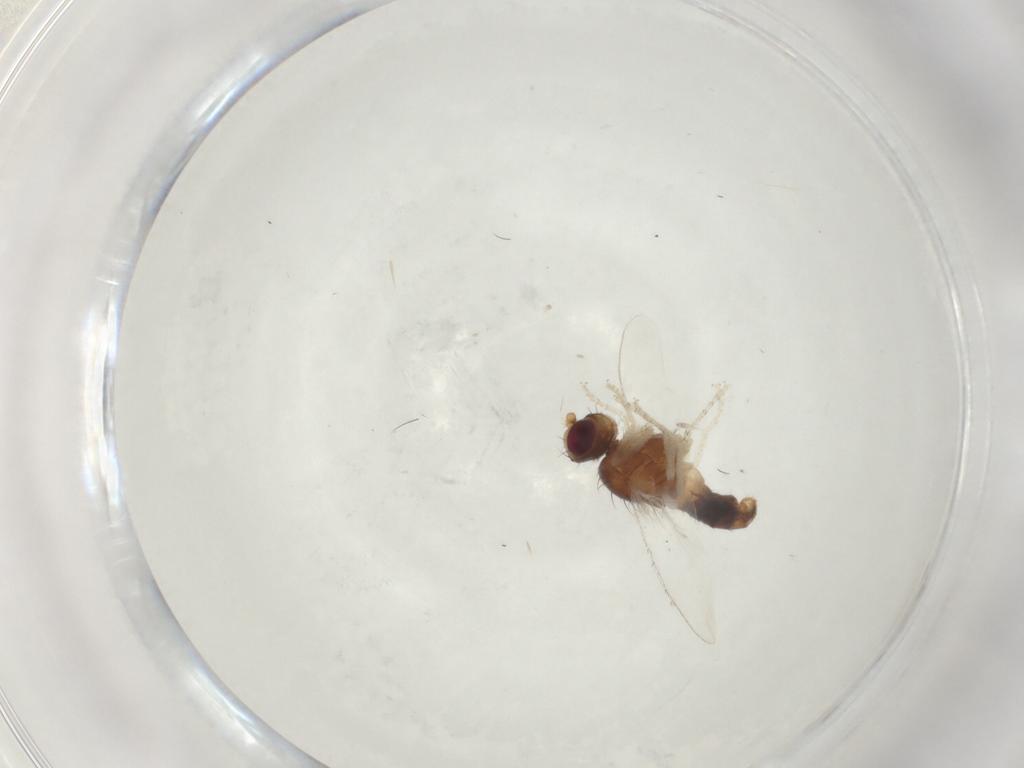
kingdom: Animalia
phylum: Arthropoda
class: Insecta
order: Diptera
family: Heleomyzidae
